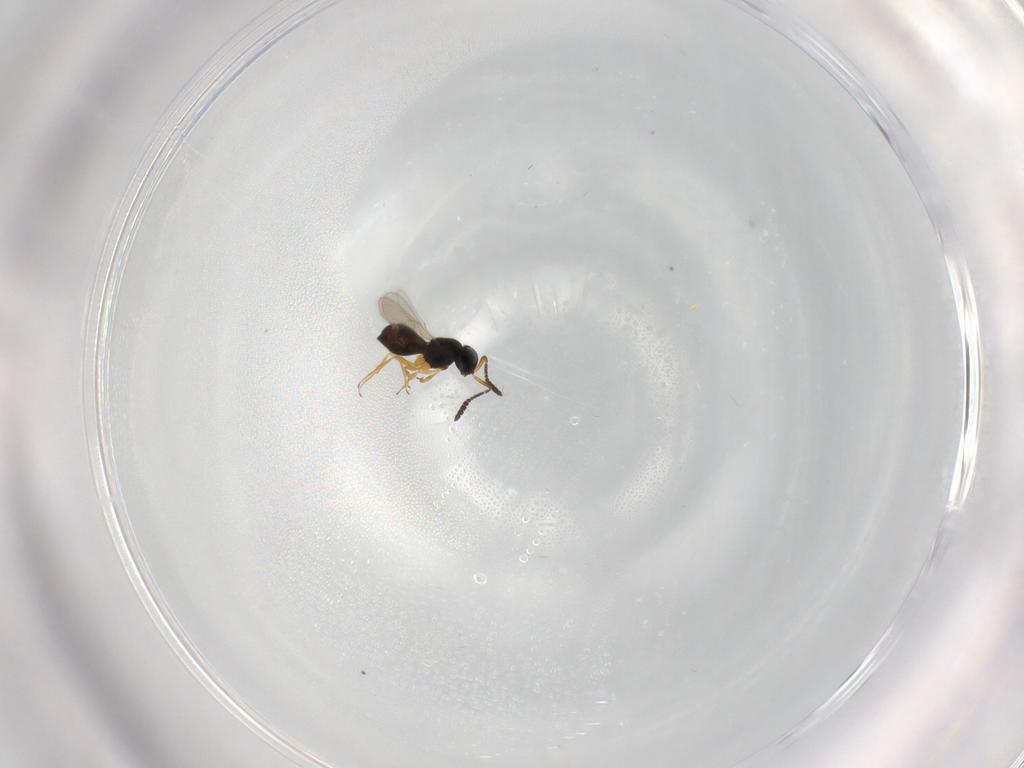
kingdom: Animalia
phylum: Arthropoda
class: Insecta
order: Hymenoptera
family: Scelionidae
